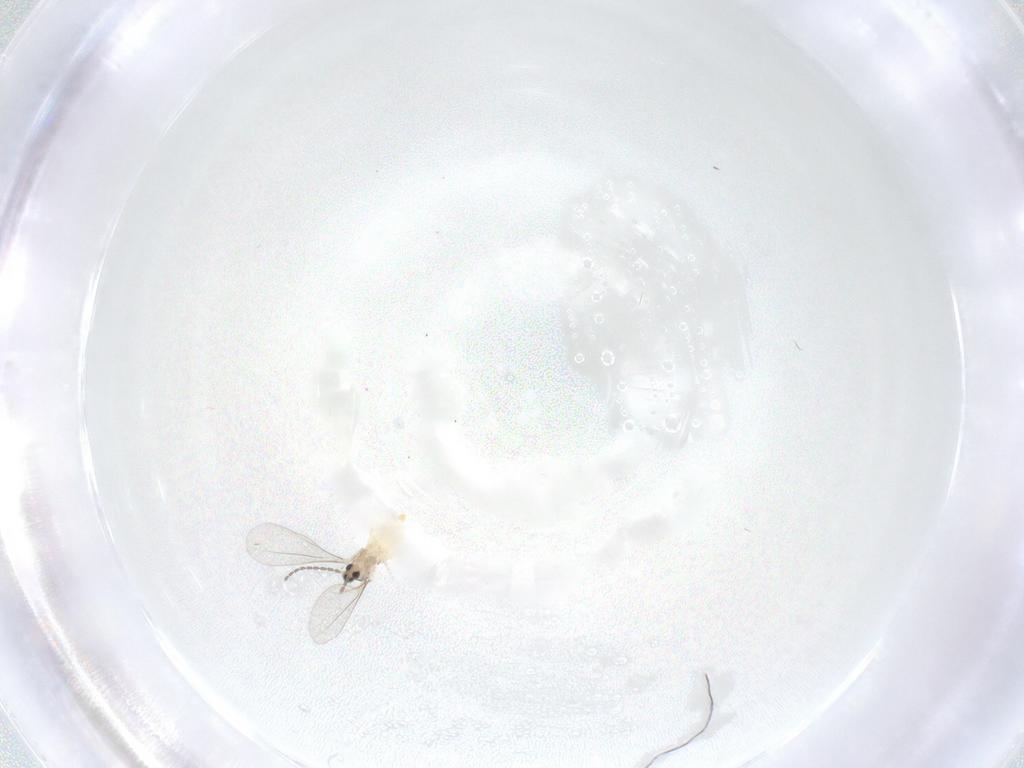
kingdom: Animalia
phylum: Arthropoda
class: Insecta
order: Diptera
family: Cecidomyiidae
